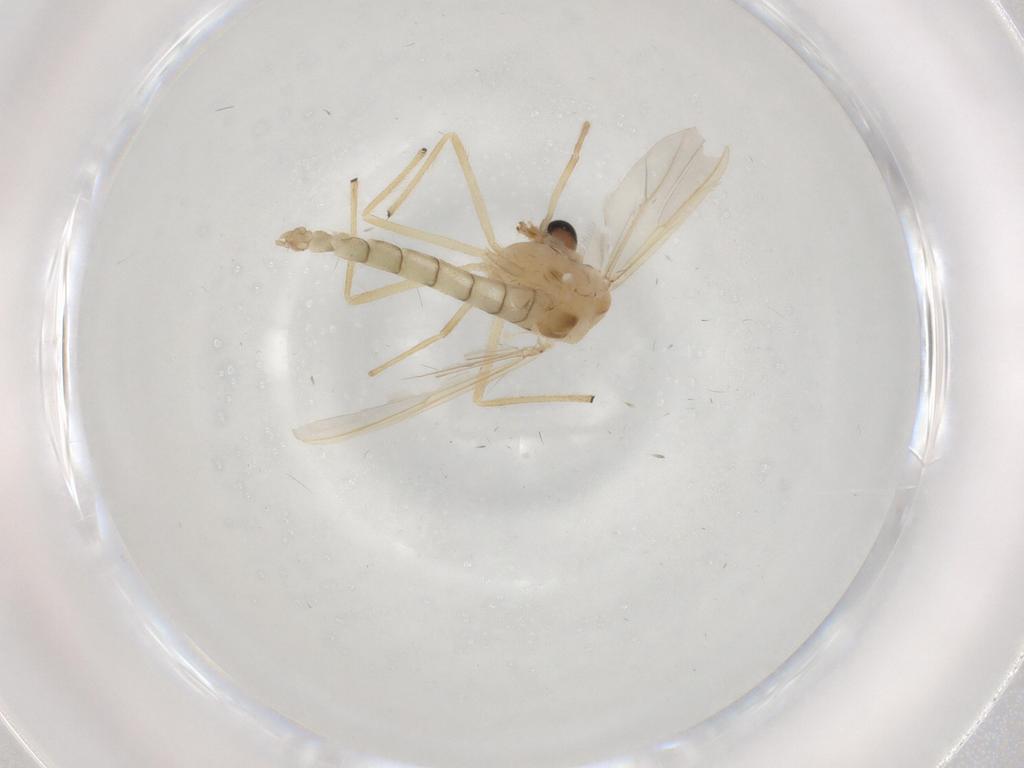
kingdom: Animalia
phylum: Arthropoda
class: Insecta
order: Diptera
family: Chironomidae
